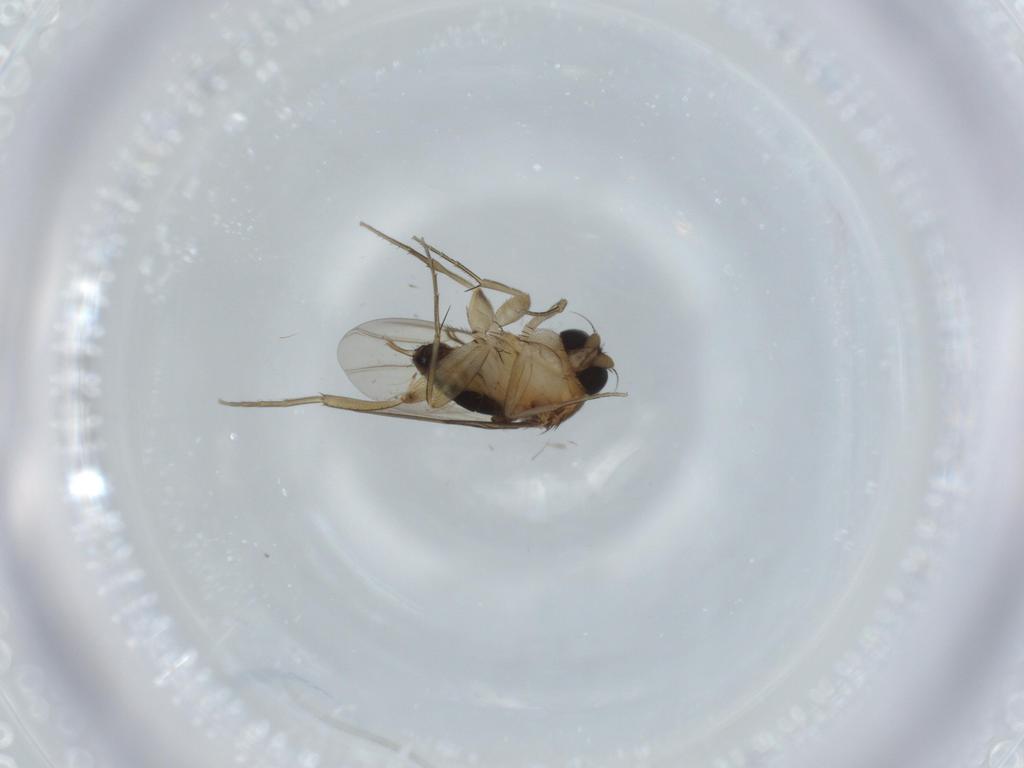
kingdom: Animalia
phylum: Arthropoda
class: Insecta
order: Diptera
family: Phoridae
